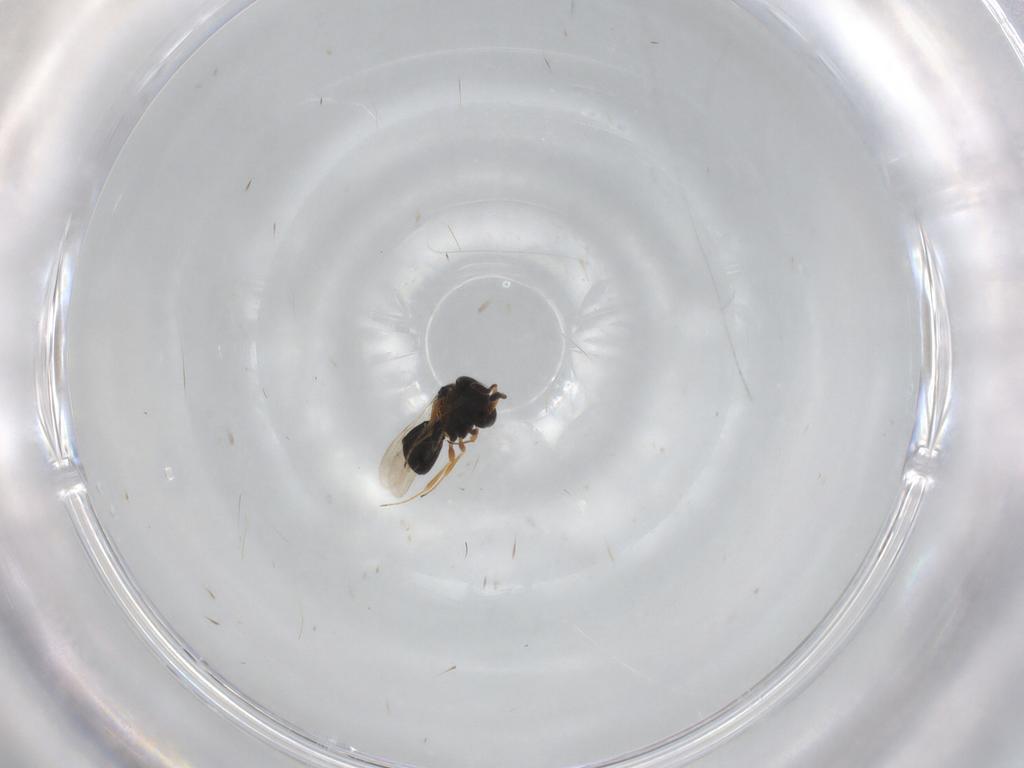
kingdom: Animalia
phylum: Arthropoda
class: Insecta
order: Hymenoptera
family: Scelionidae
